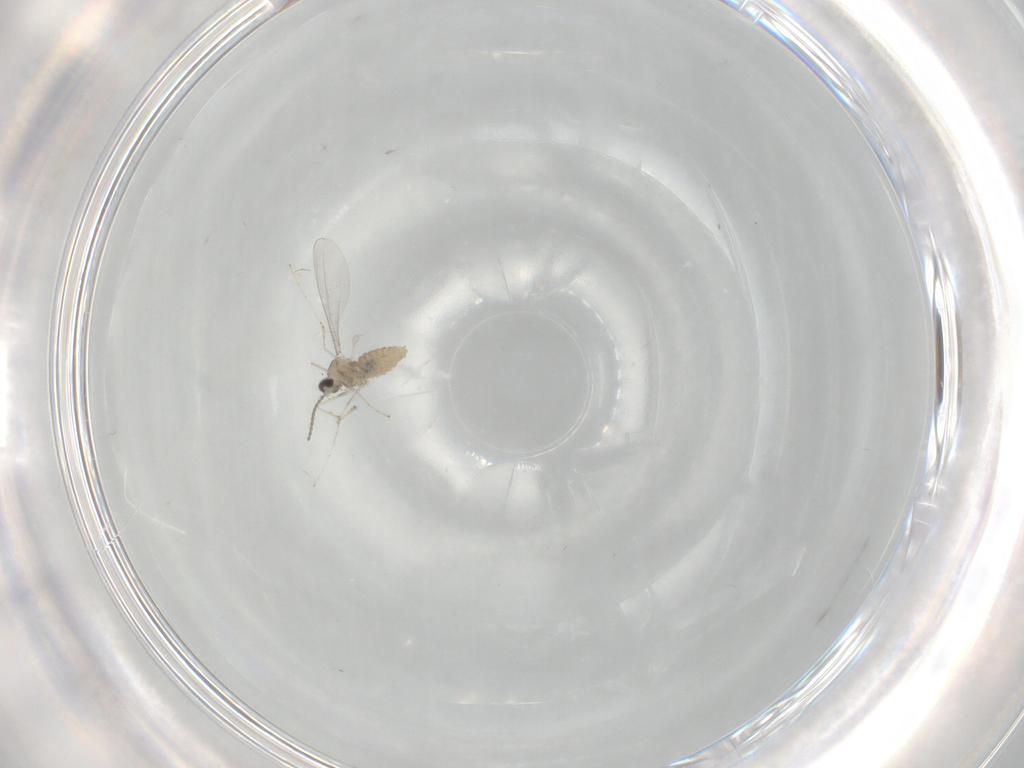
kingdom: Animalia
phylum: Arthropoda
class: Insecta
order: Diptera
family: Cecidomyiidae
